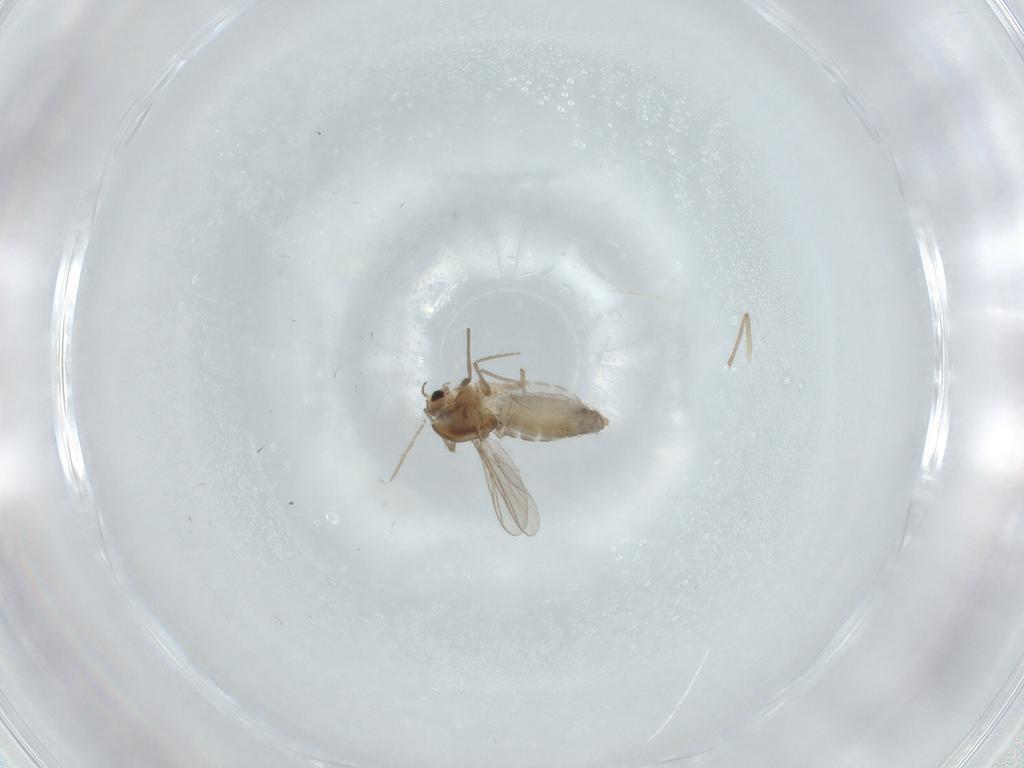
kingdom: Animalia
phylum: Arthropoda
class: Insecta
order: Diptera
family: Chironomidae
